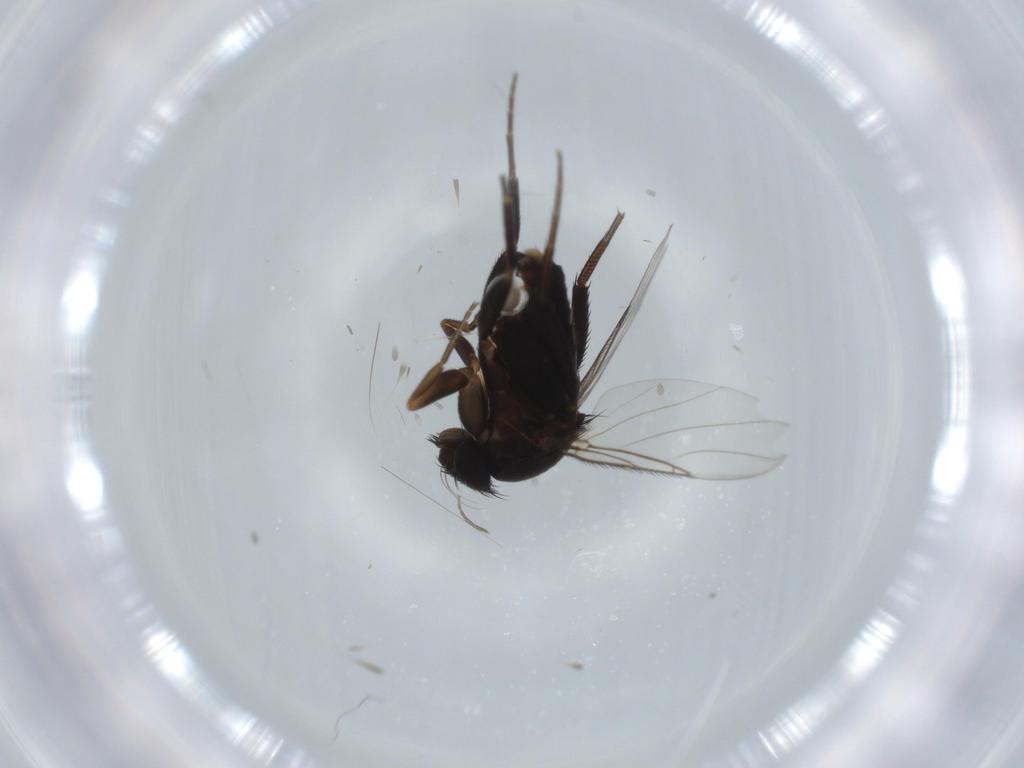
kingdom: Animalia
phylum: Arthropoda
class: Insecta
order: Diptera
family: Phoridae
